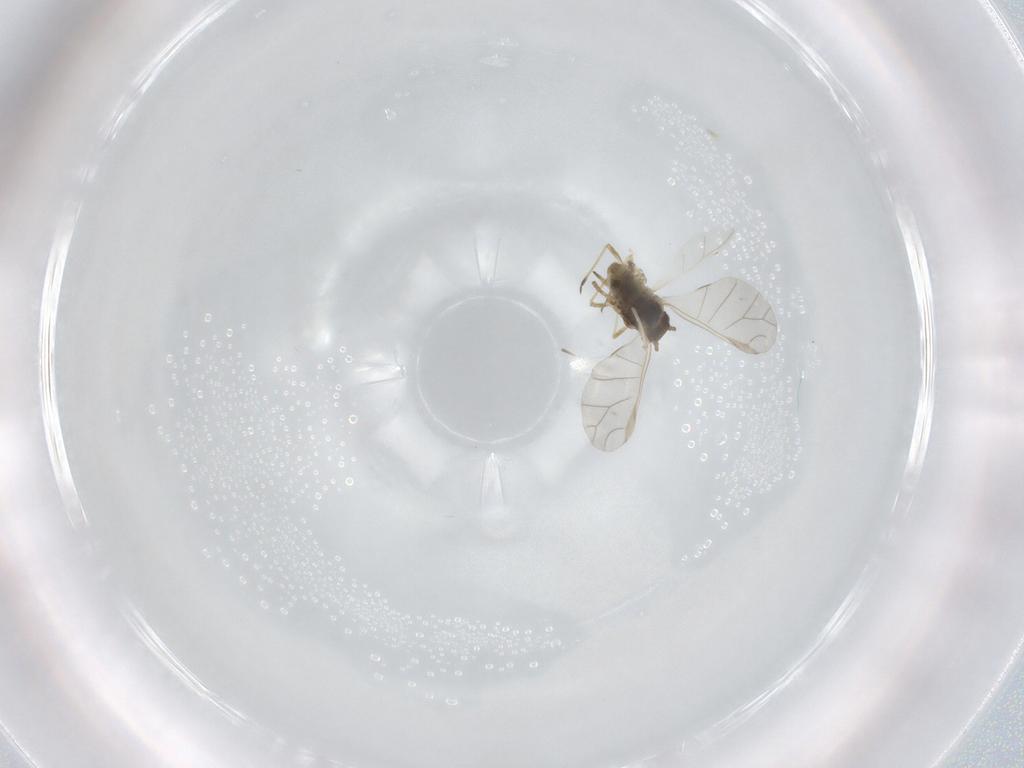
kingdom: Animalia
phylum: Arthropoda
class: Insecta
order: Hemiptera
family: Aphididae
